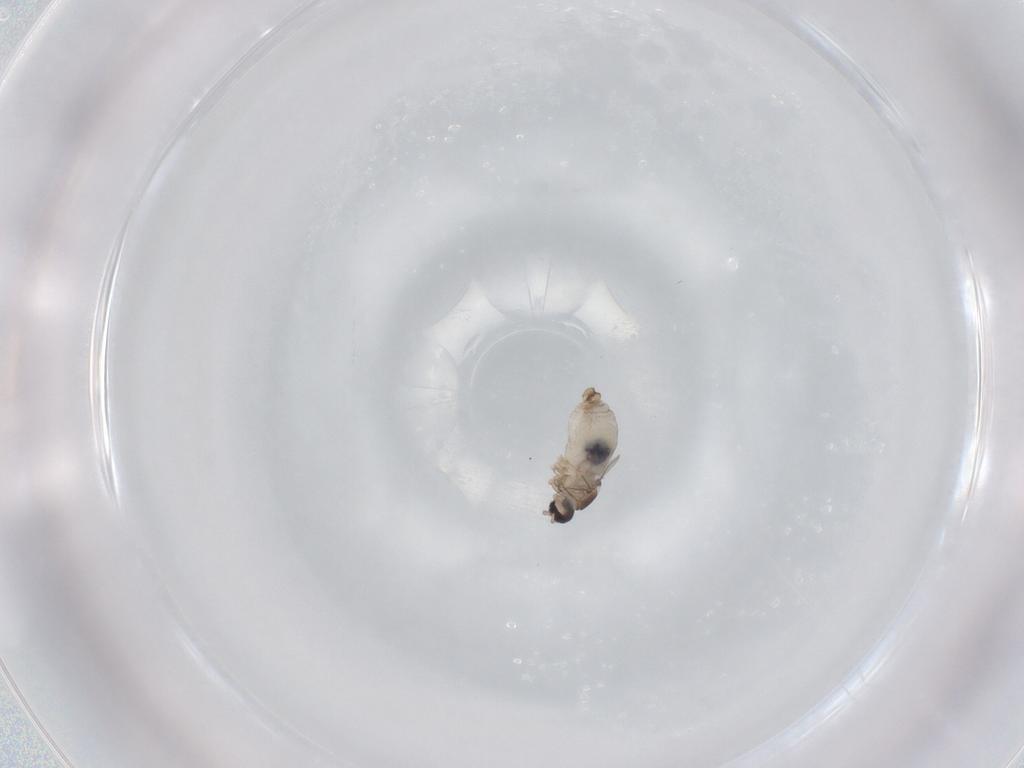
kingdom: Animalia
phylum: Arthropoda
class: Insecta
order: Diptera
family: Cecidomyiidae
